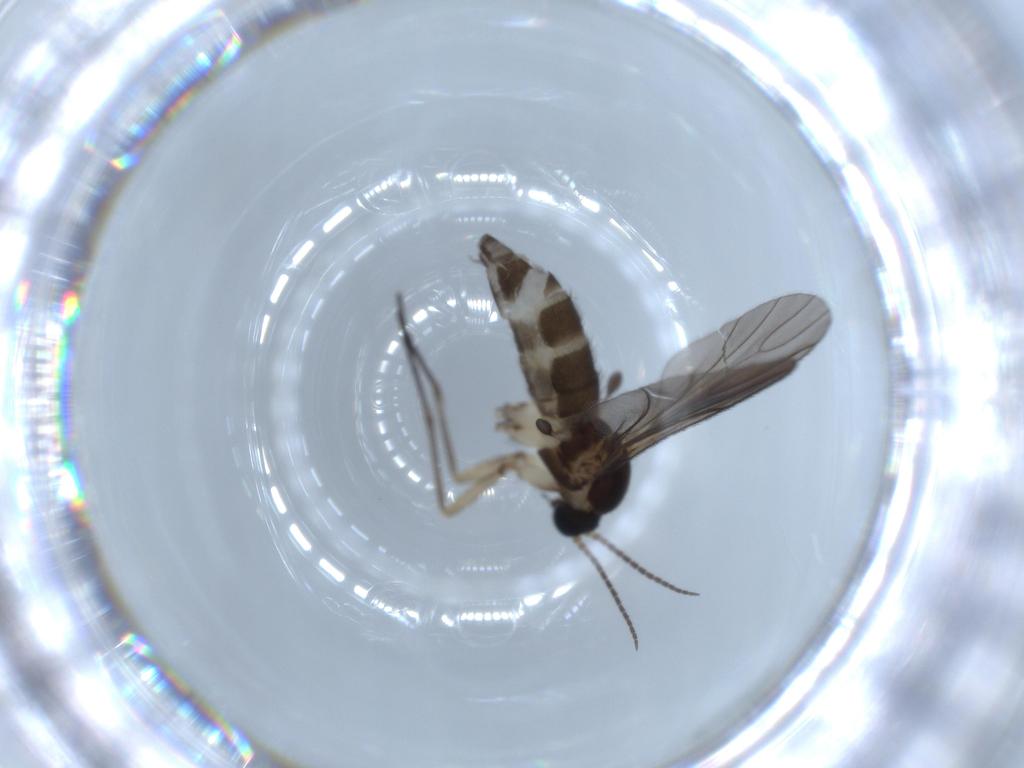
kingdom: Animalia
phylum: Arthropoda
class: Insecta
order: Diptera
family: Sciaridae
